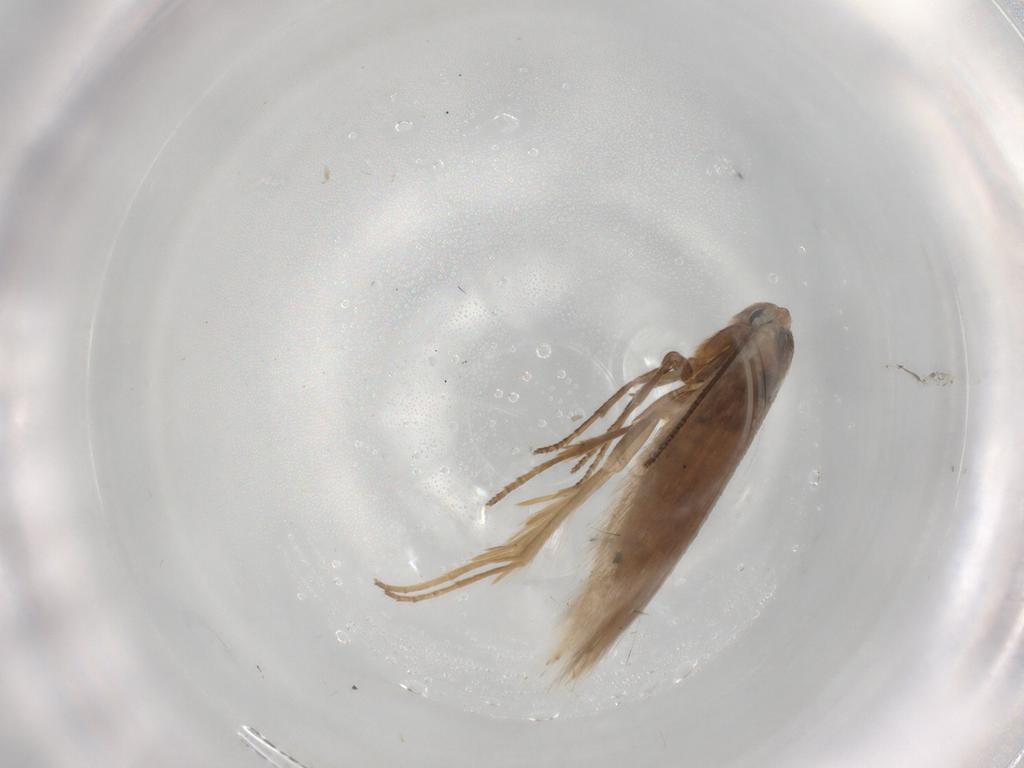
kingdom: Animalia
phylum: Arthropoda
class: Insecta
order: Lepidoptera
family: Bucculatricidae
